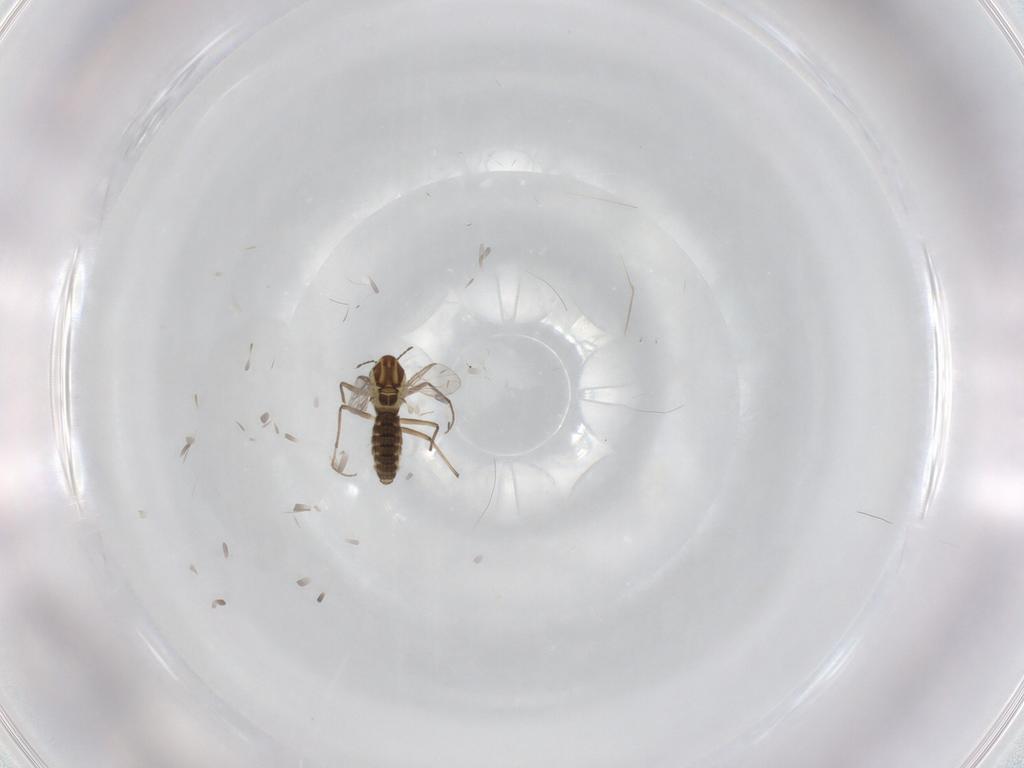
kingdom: Animalia
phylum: Arthropoda
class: Insecta
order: Diptera
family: Chironomidae
